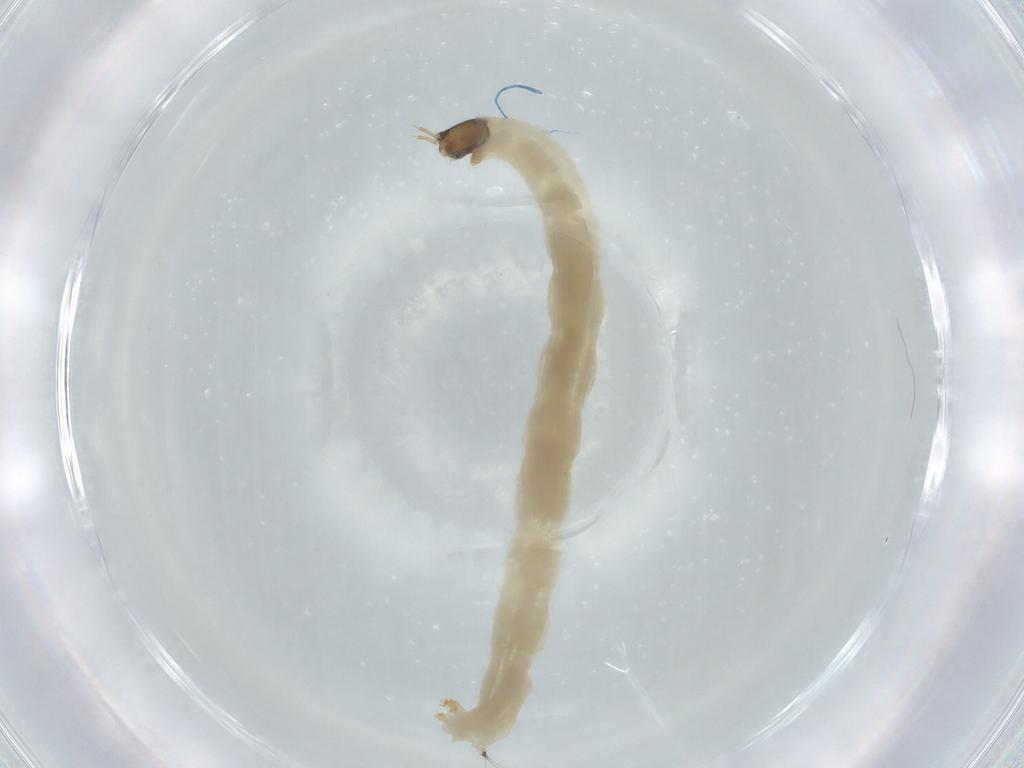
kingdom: Animalia
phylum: Arthropoda
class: Insecta
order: Diptera
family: Chironomidae
